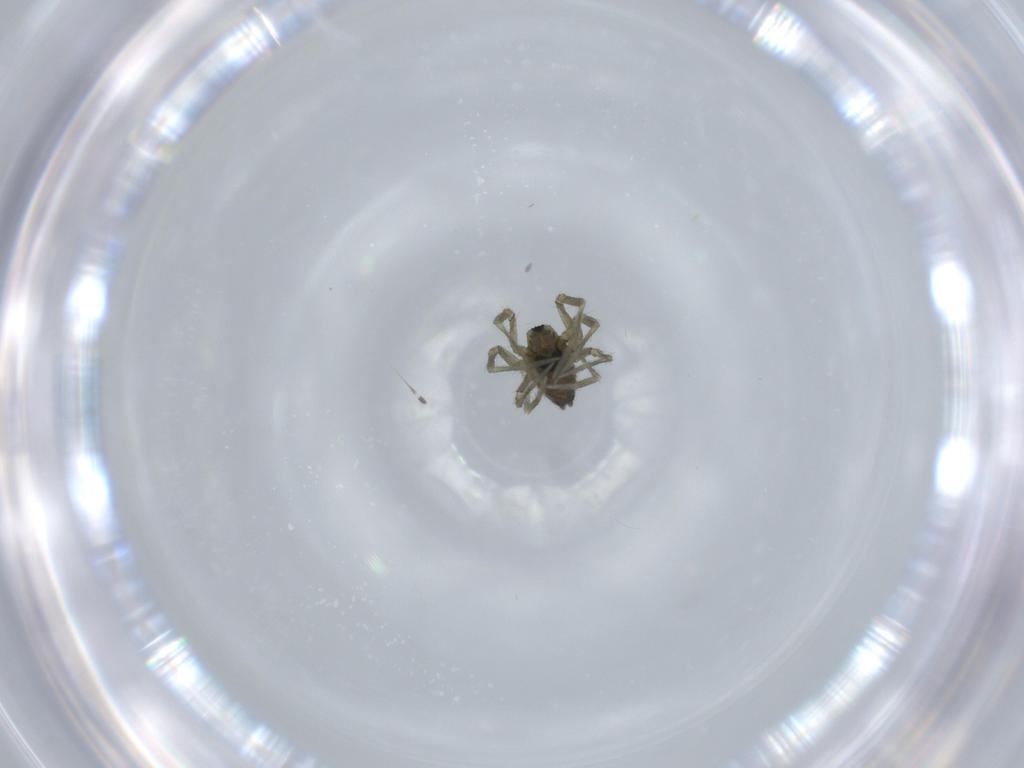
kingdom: Animalia
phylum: Arthropoda
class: Arachnida
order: Araneae
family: Linyphiidae
